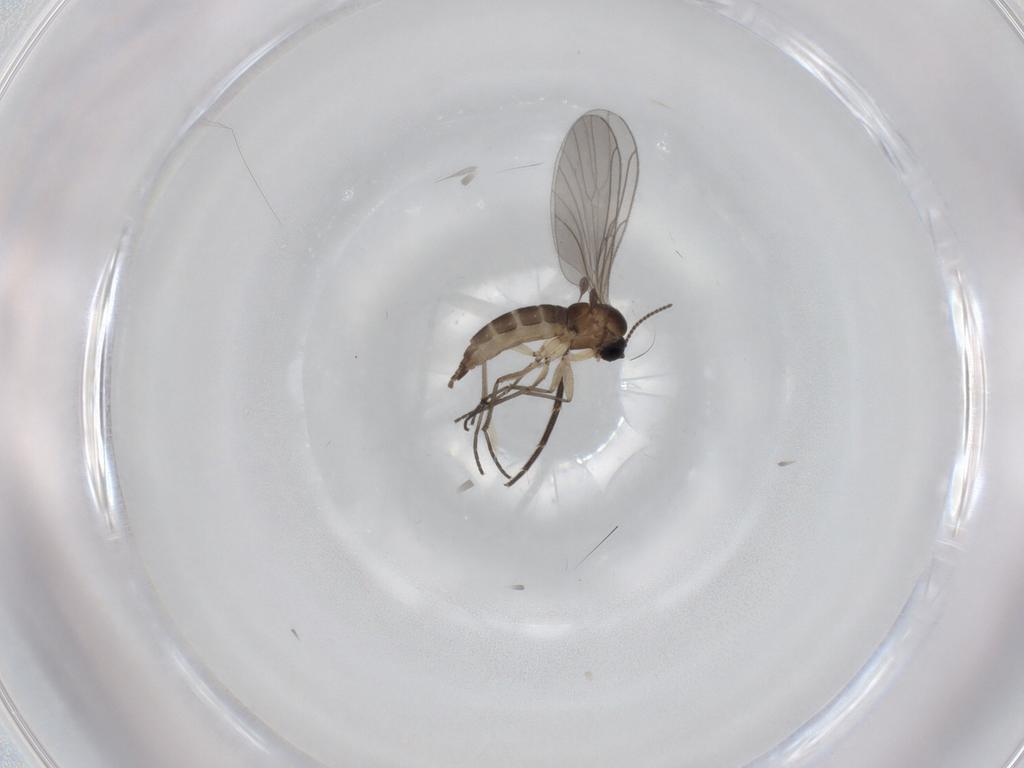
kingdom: Animalia
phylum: Arthropoda
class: Insecta
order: Diptera
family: Sciaridae
